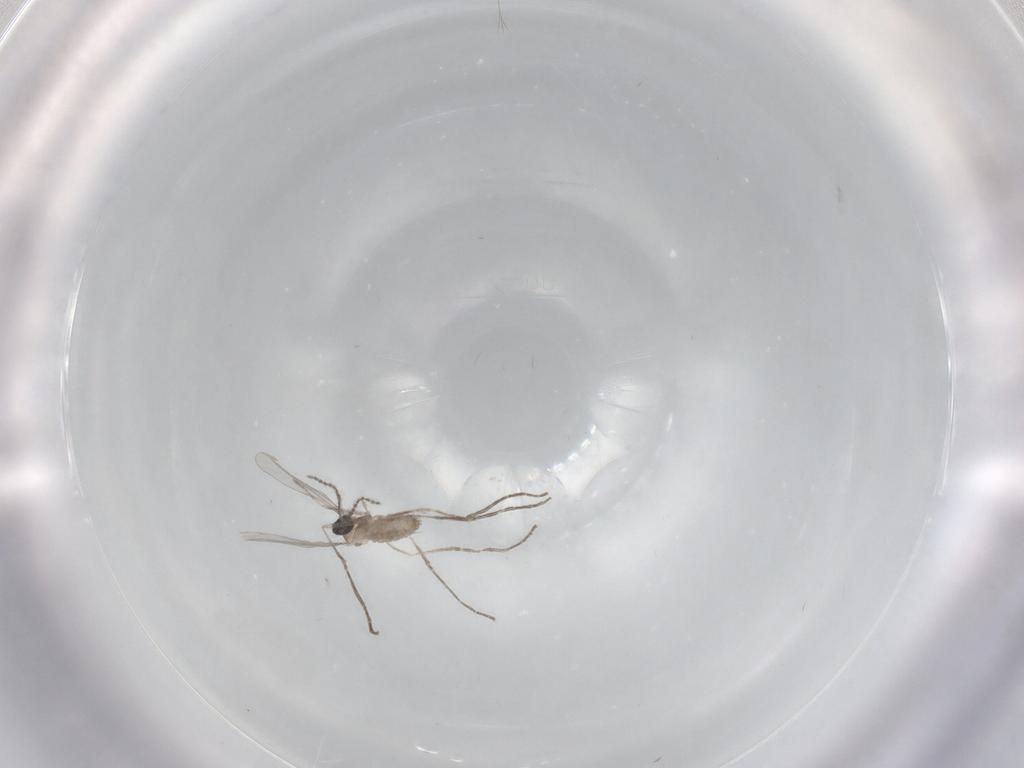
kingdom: Animalia
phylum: Arthropoda
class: Insecta
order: Diptera
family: Cecidomyiidae
